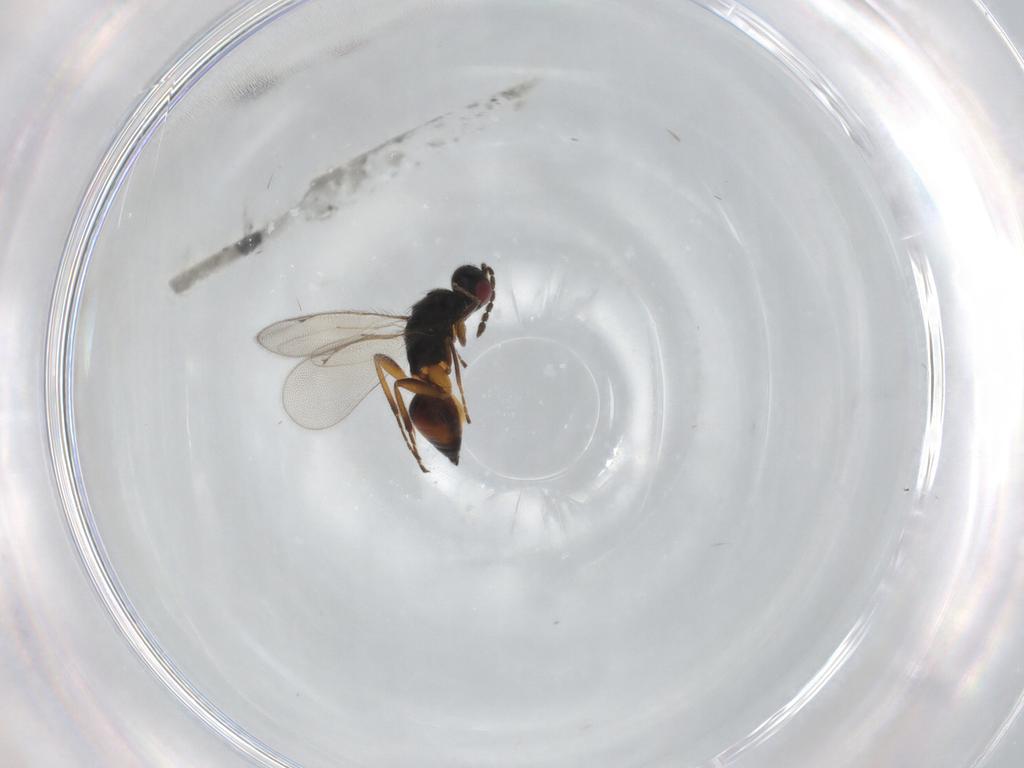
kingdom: Animalia
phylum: Arthropoda
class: Insecta
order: Hymenoptera
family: Eulophidae
